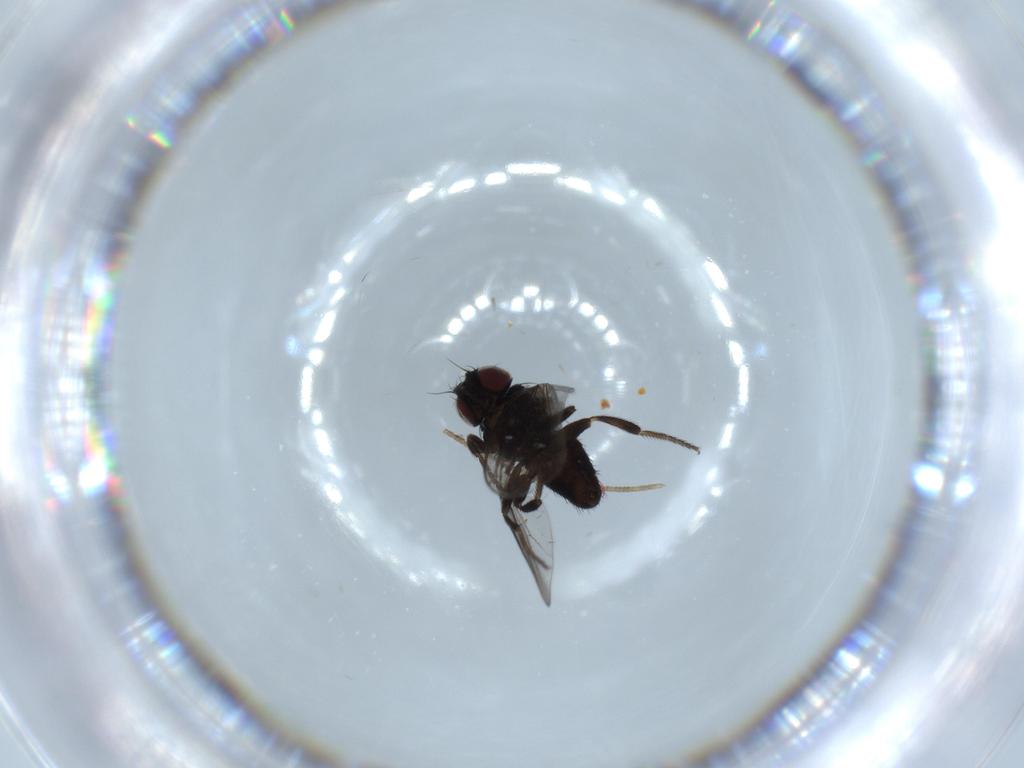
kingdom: Animalia
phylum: Arthropoda
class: Insecta
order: Diptera
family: Milichiidae
